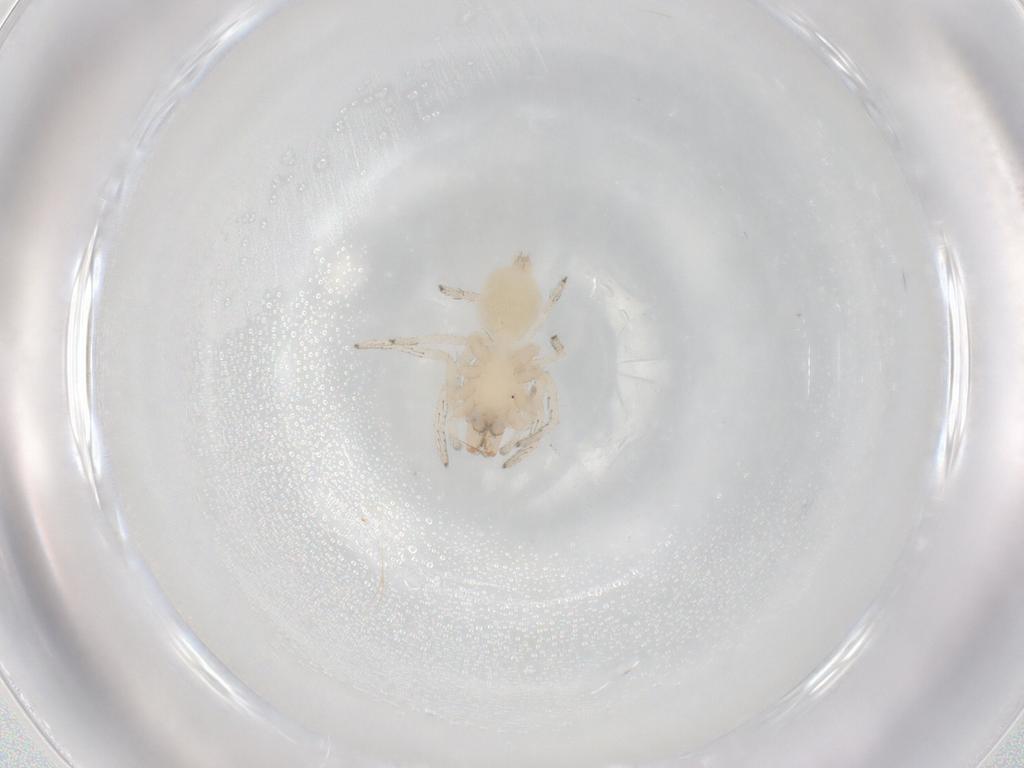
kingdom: Animalia
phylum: Arthropoda
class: Arachnida
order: Araneae
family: Clubionidae
